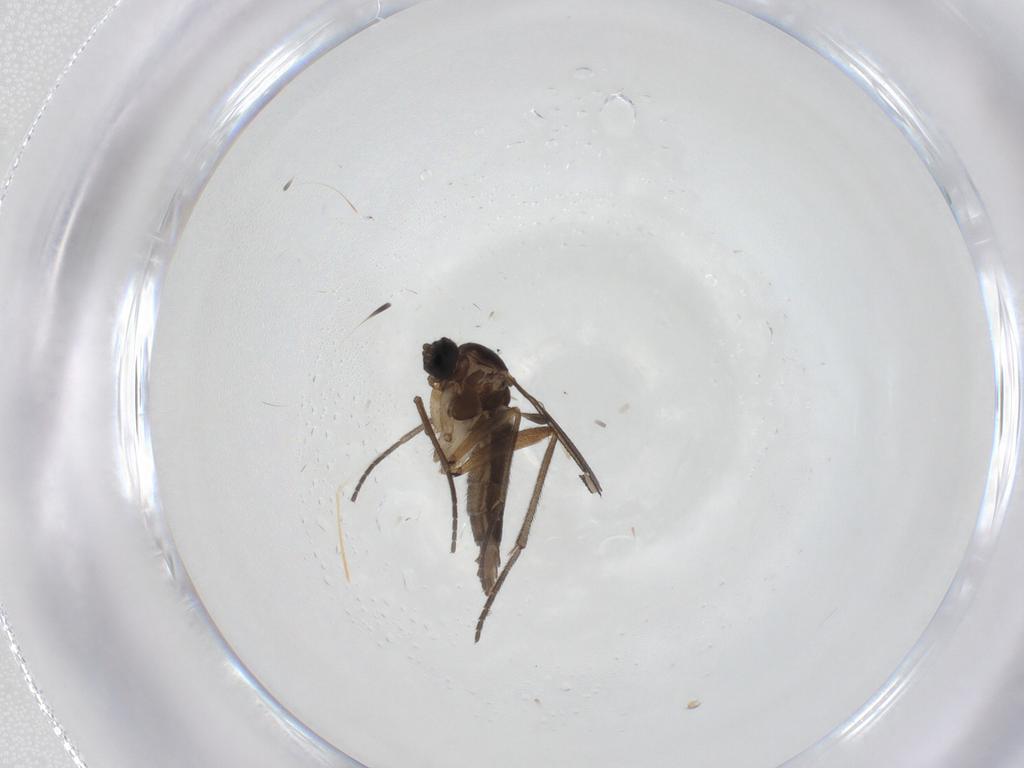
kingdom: Animalia
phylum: Arthropoda
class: Insecta
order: Diptera
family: Sciaridae
